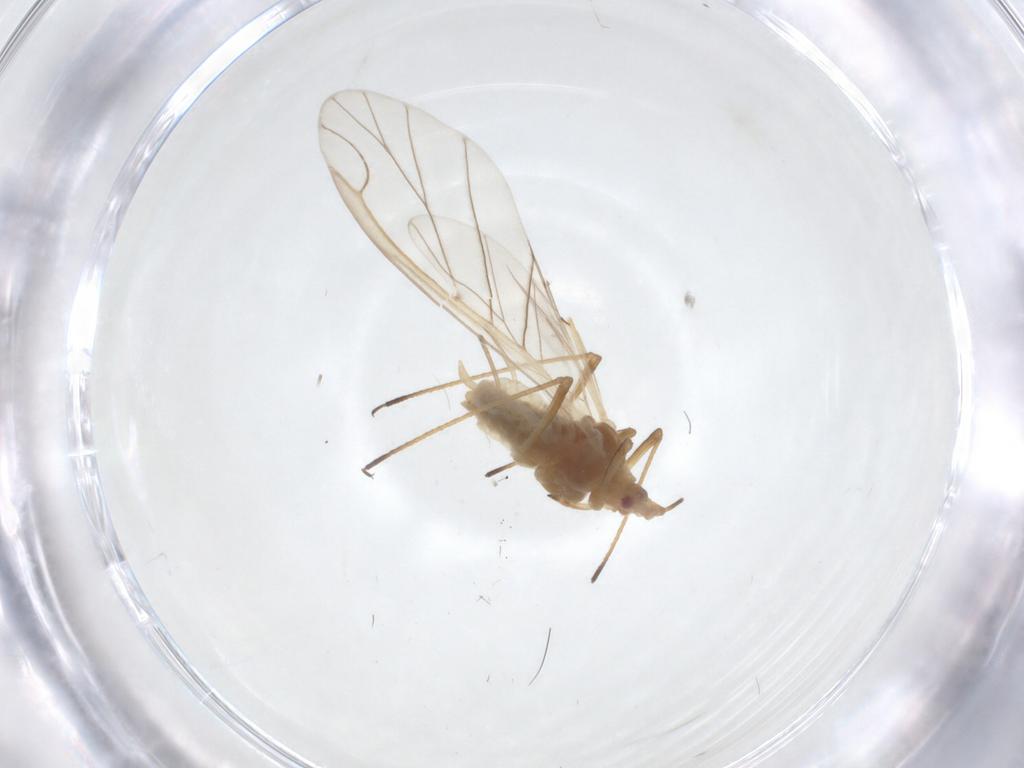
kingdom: Animalia
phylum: Arthropoda
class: Insecta
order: Hemiptera
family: Aphididae
